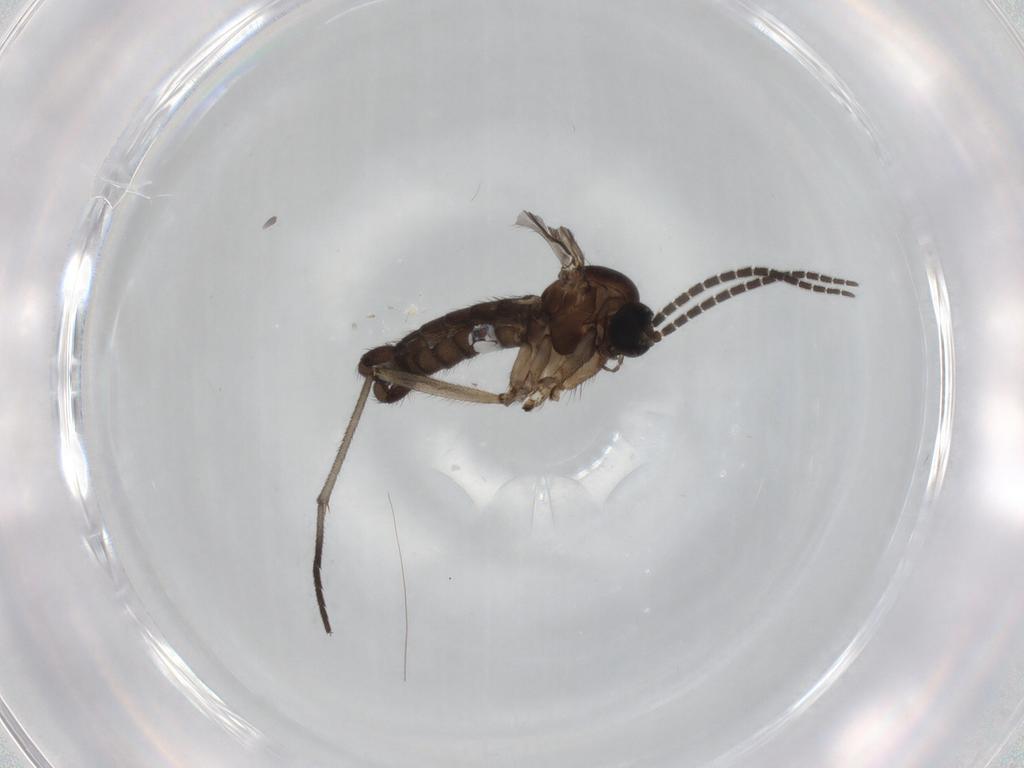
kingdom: Animalia
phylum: Arthropoda
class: Insecta
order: Diptera
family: Sciaridae
